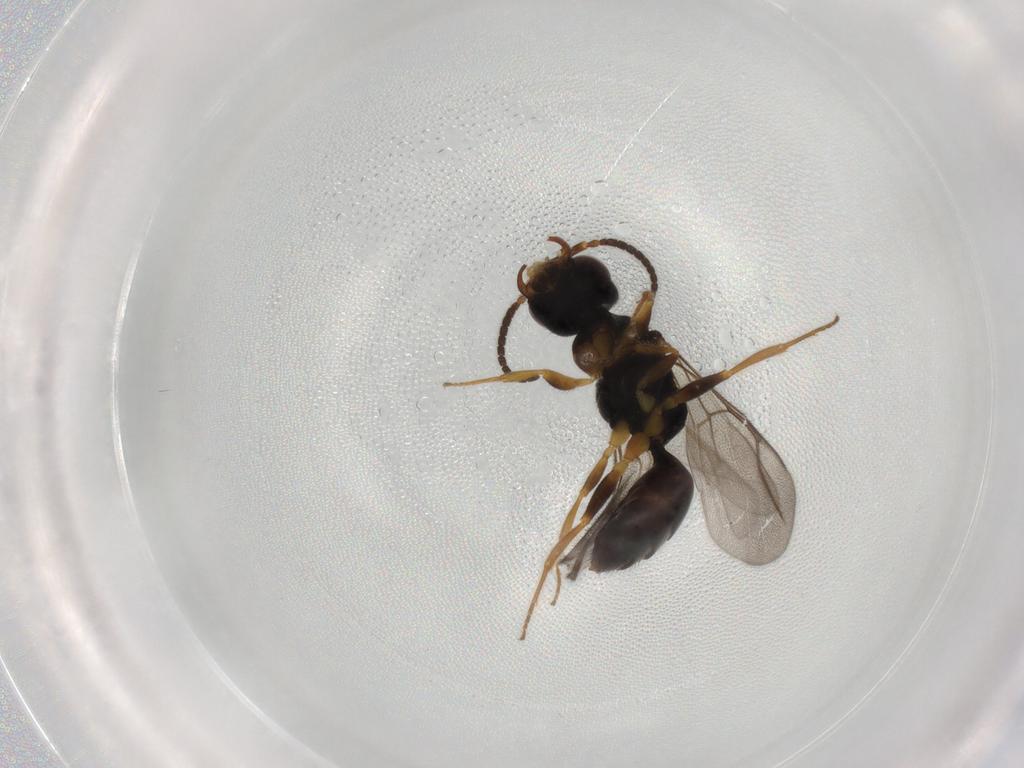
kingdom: Animalia
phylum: Arthropoda
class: Insecta
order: Hymenoptera
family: Bethylidae
